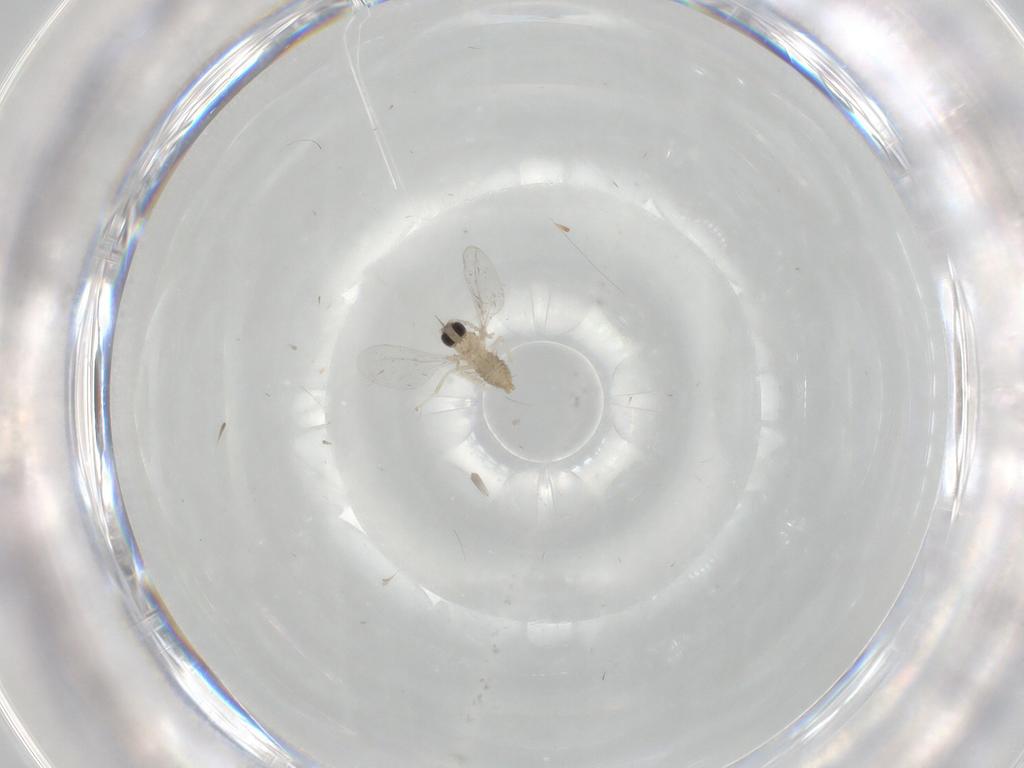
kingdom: Animalia
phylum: Arthropoda
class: Insecta
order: Diptera
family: Cecidomyiidae
